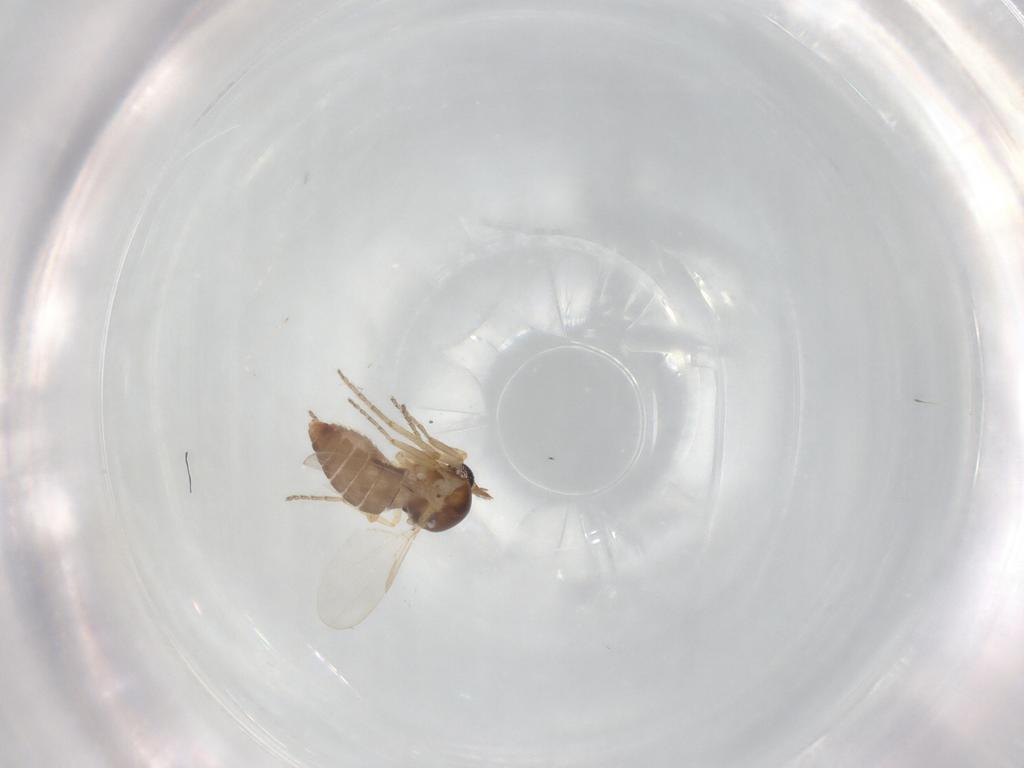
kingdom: Animalia
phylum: Arthropoda
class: Insecta
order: Diptera
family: Ceratopogonidae
